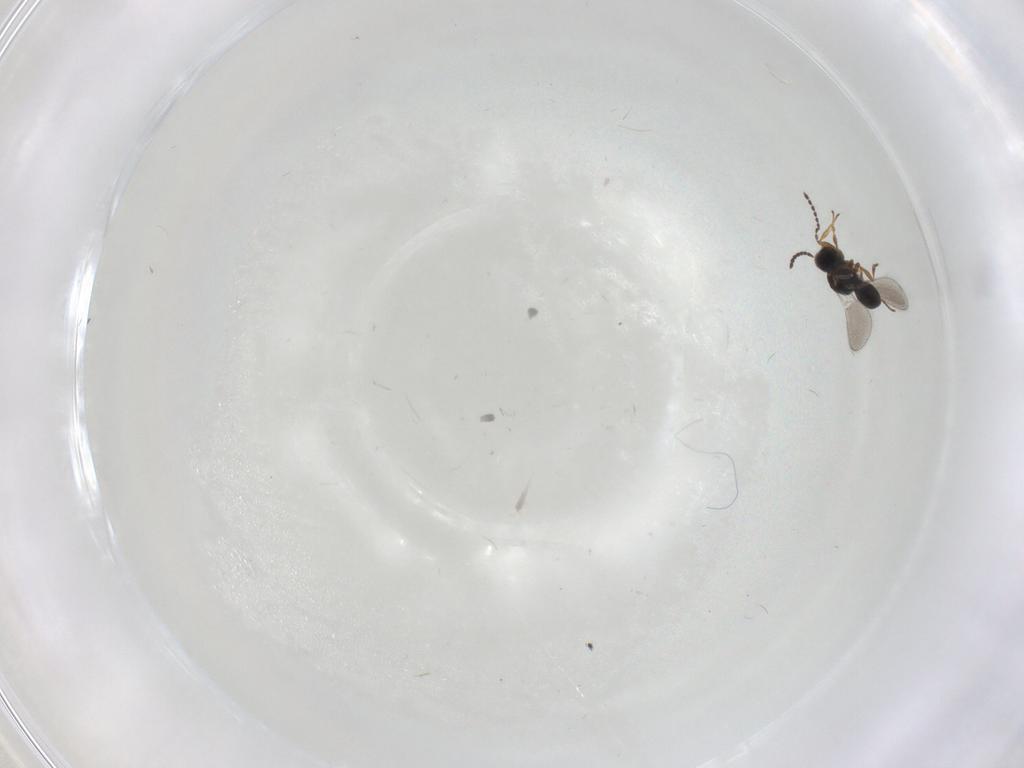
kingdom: Animalia
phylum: Arthropoda
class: Insecta
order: Hymenoptera
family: Platygastridae
